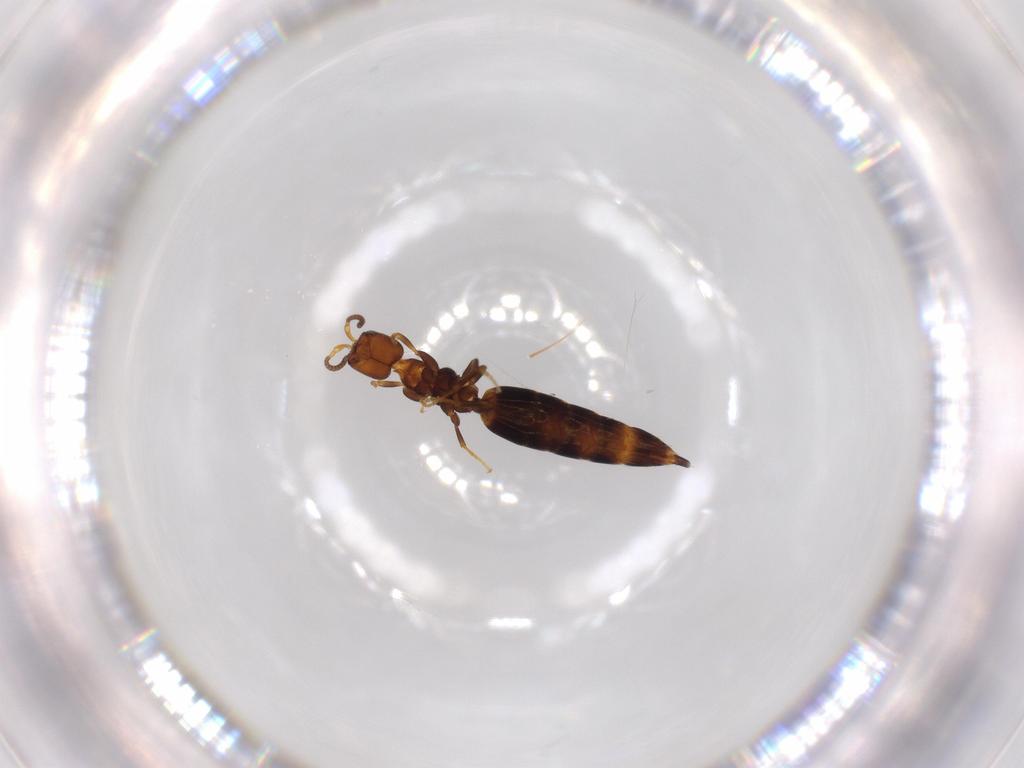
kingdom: Animalia
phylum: Arthropoda
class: Insecta
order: Hymenoptera
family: Bethylidae
